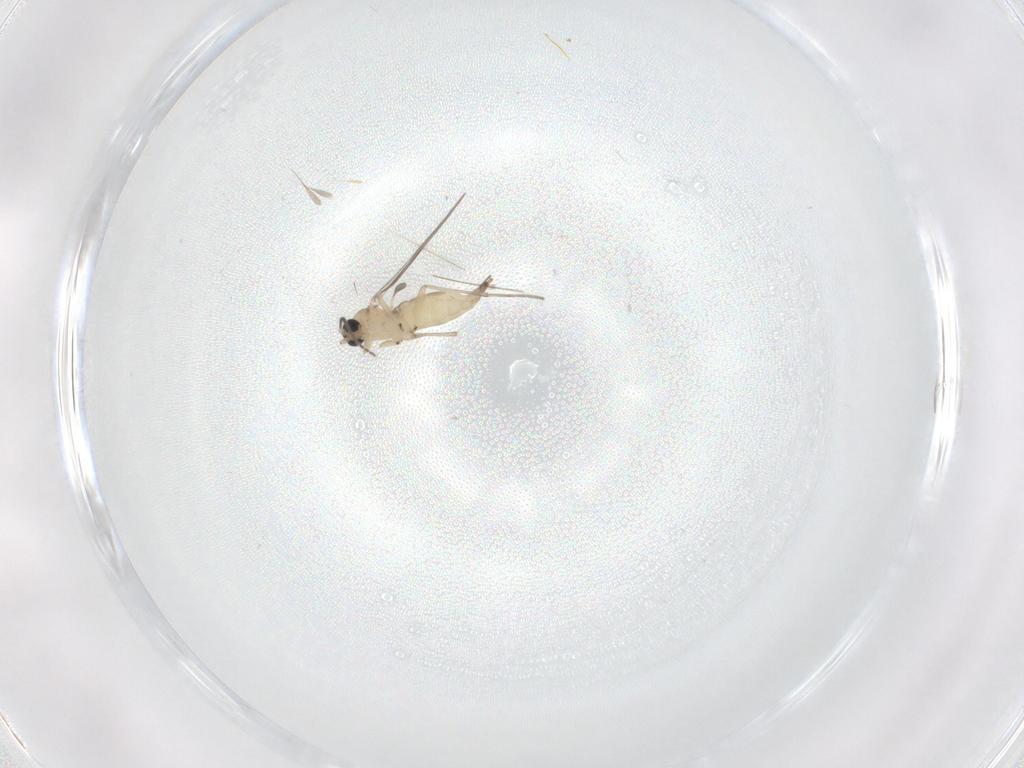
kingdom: Animalia
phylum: Arthropoda
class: Insecta
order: Diptera
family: Sciaridae
